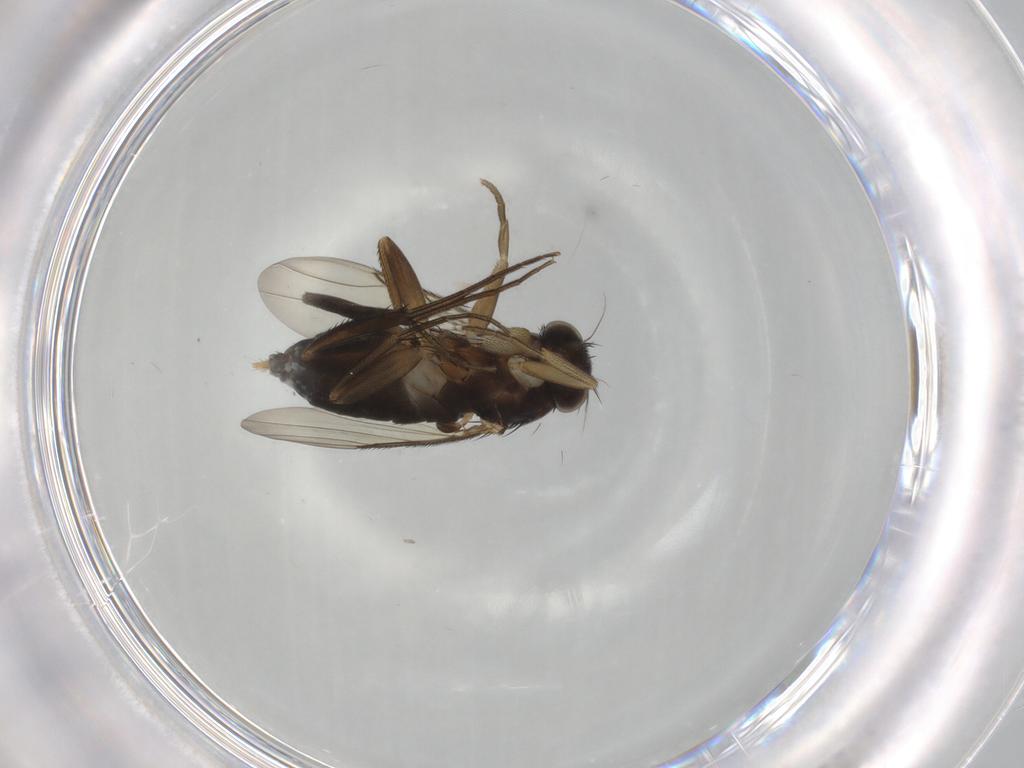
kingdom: Animalia
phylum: Arthropoda
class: Insecta
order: Diptera
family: Phoridae
